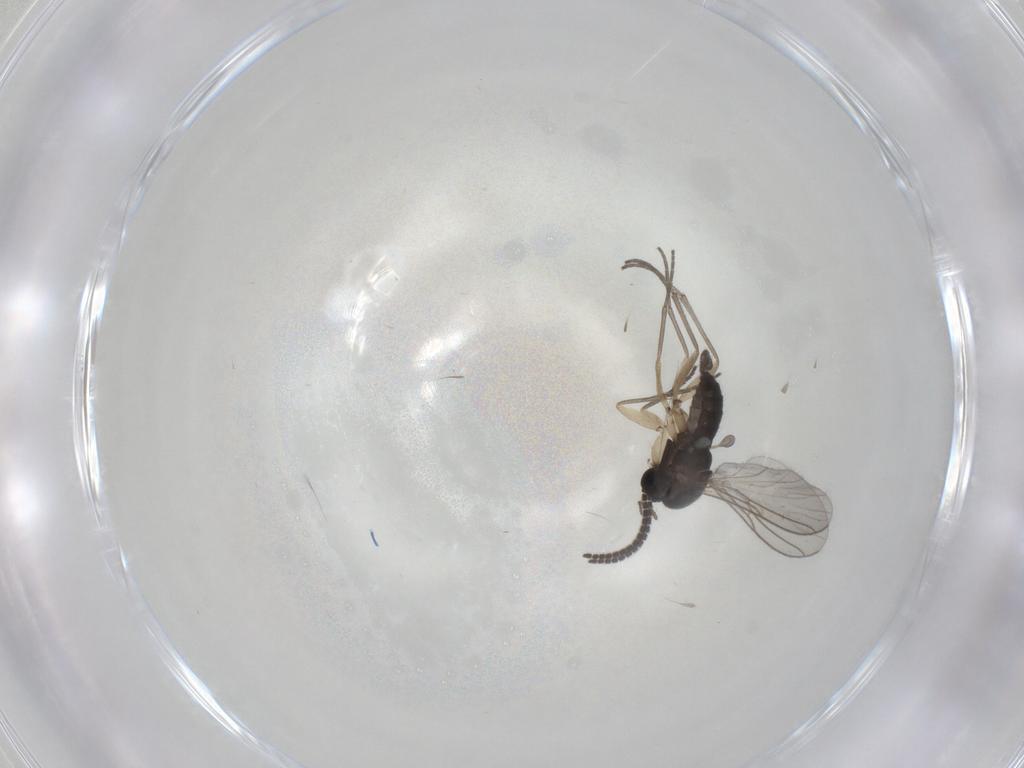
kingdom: Animalia
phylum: Arthropoda
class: Insecta
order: Diptera
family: Sciaridae
